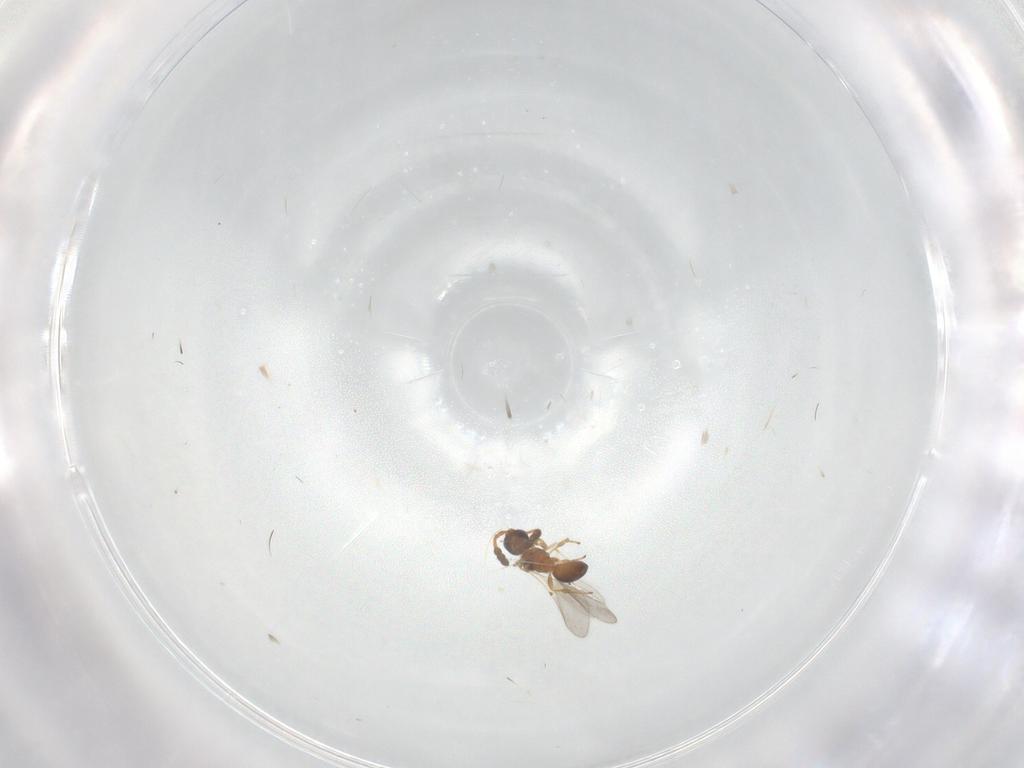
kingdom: Animalia
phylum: Arthropoda
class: Insecta
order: Hymenoptera
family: Diapriidae
